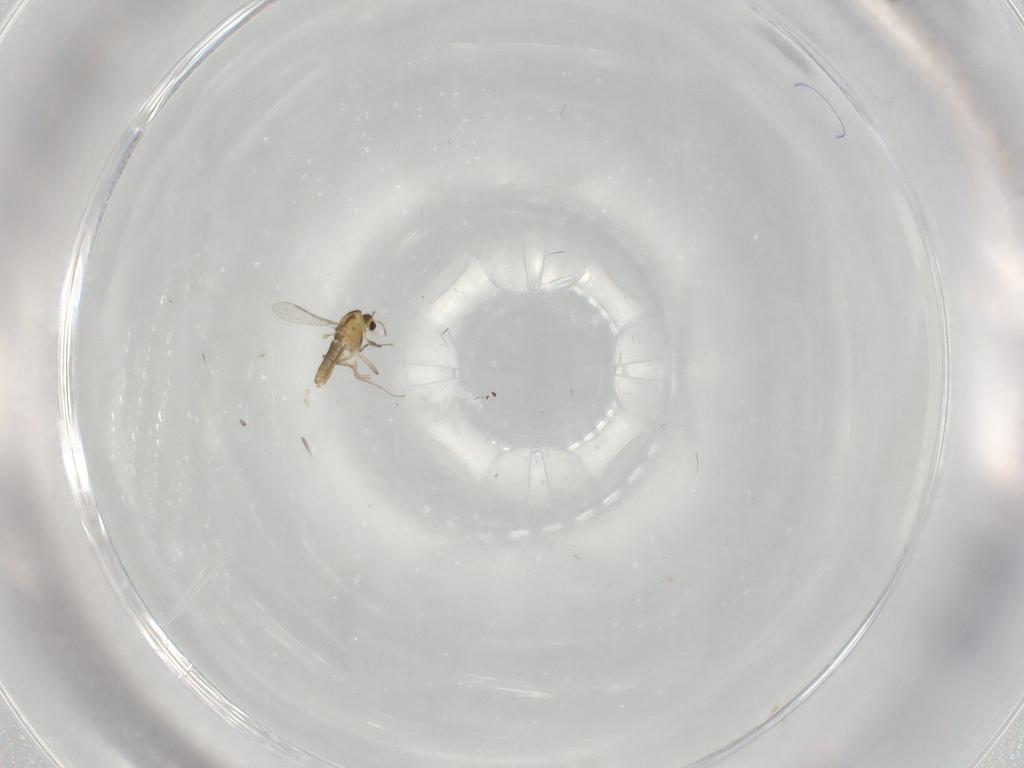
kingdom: Animalia
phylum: Arthropoda
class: Insecta
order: Diptera
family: Chironomidae
